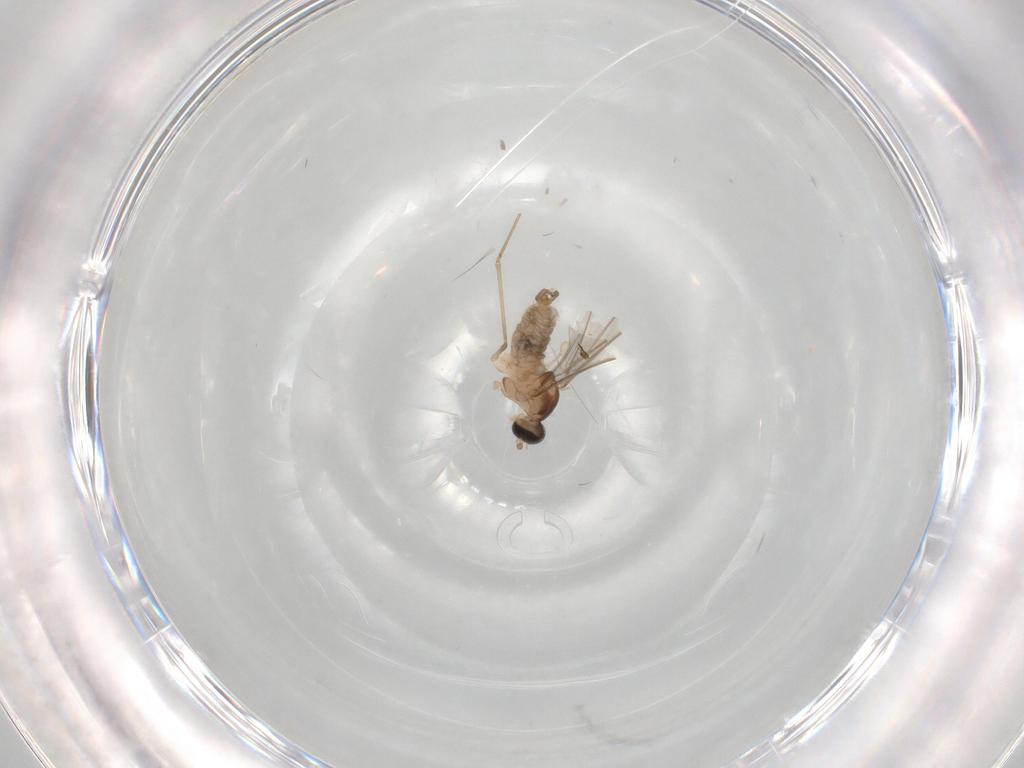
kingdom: Animalia
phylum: Arthropoda
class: Insecta
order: Diptera
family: Cecidomyiidae
